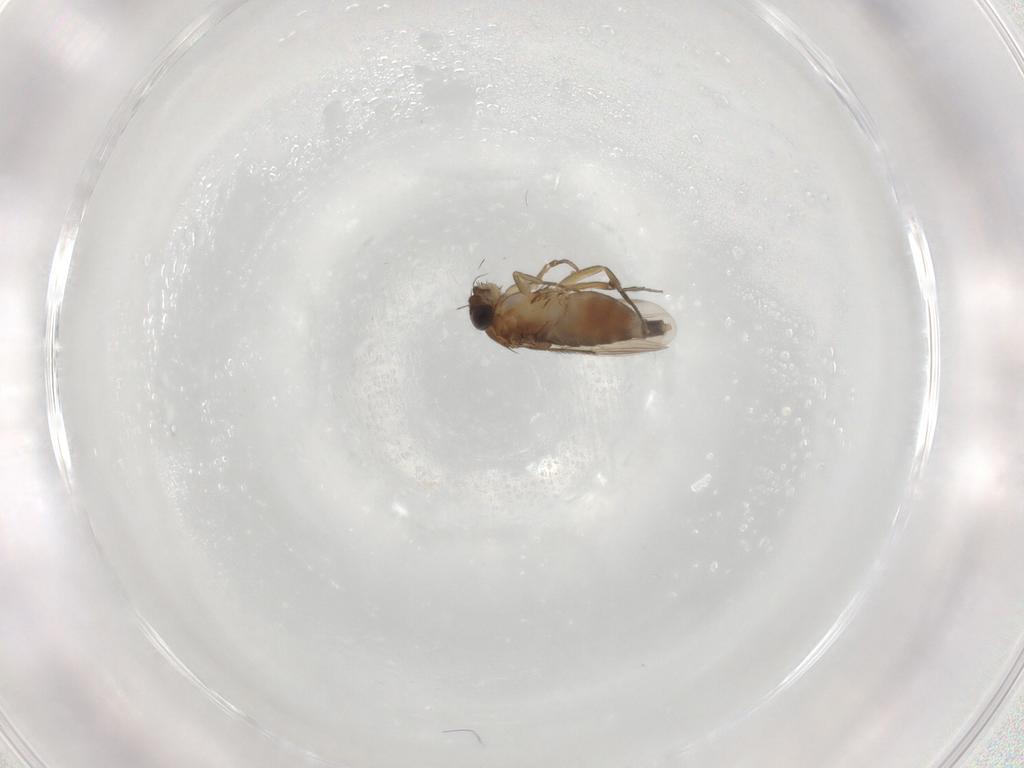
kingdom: Animalia
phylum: Arthropoda
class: Insecta
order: Diptera
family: Sphaeroceridae
